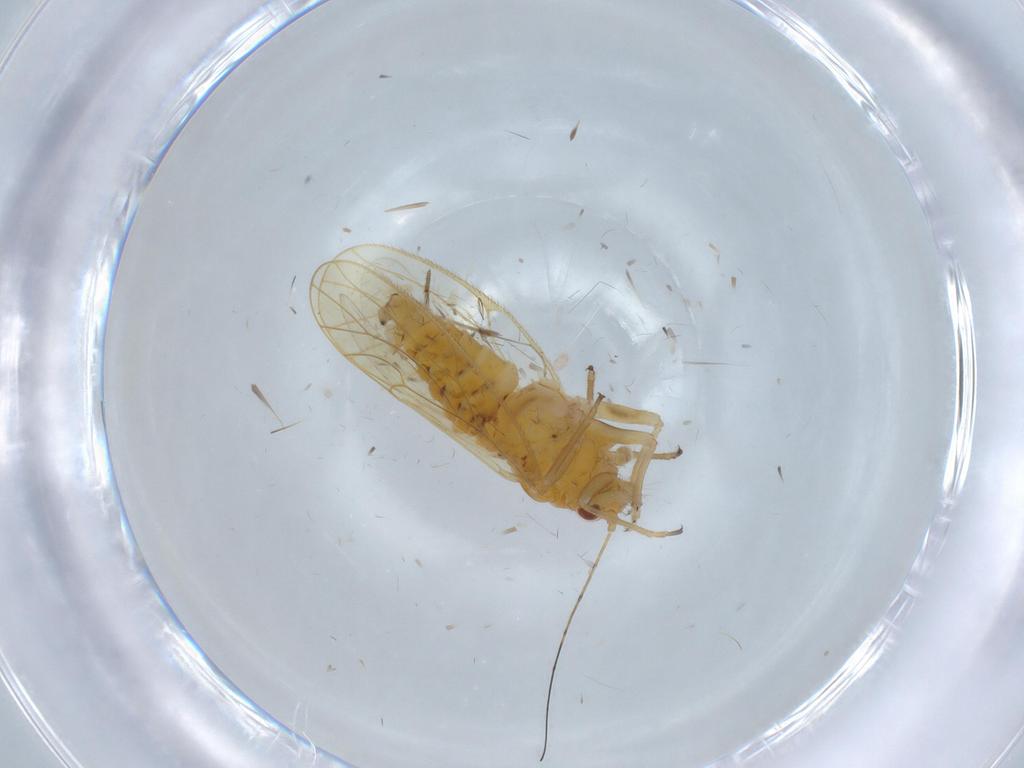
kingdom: Animalia
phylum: Arthropoda
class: Insecta
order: Hemiptera
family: Psyllidae
